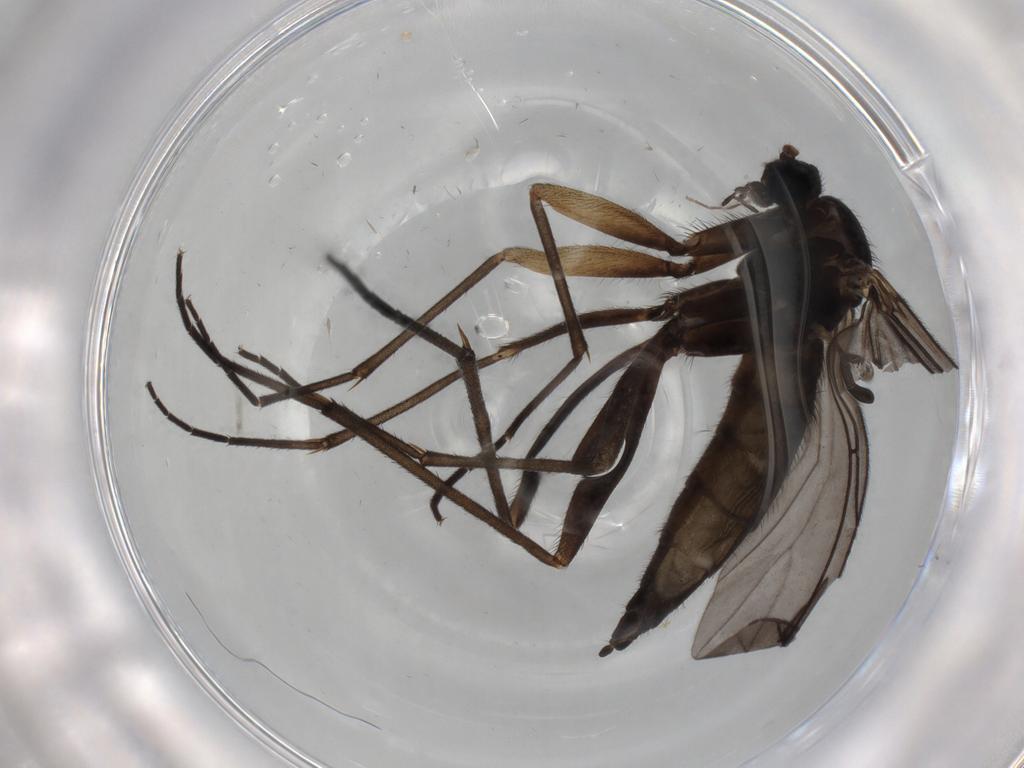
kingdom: Animalia
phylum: Arthropoda
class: Insecta
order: Diptera
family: Sciaridae
